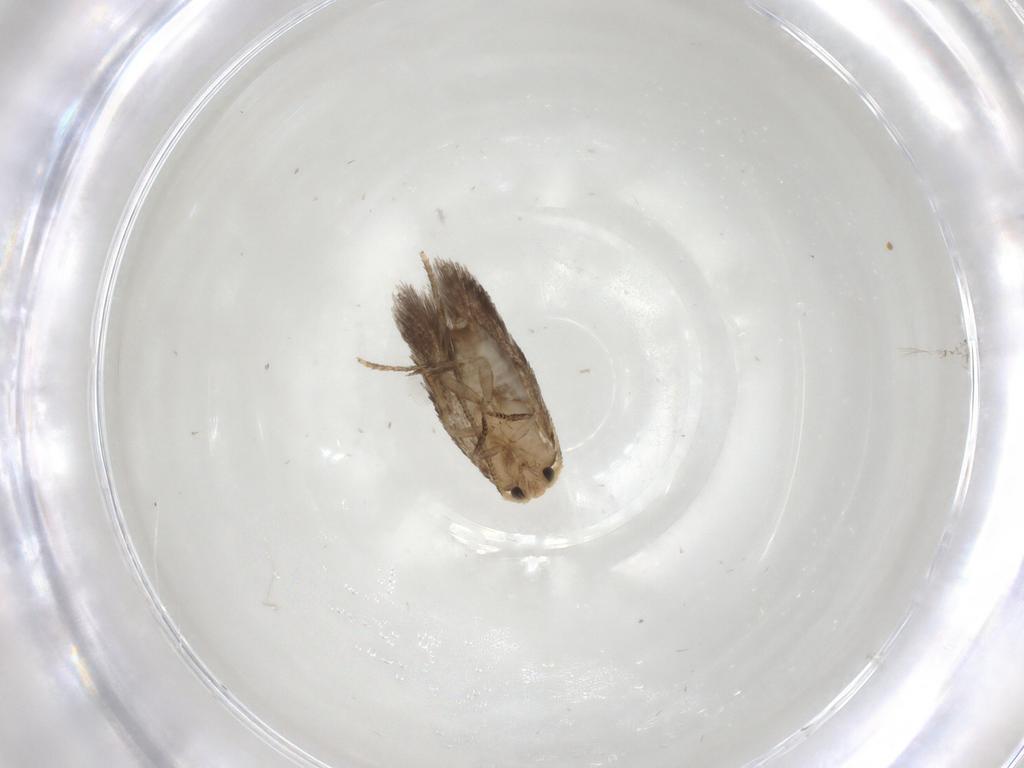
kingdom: Animalia
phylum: Arthropoda
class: Insecta
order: Lepidoptera
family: Nepticulidae
